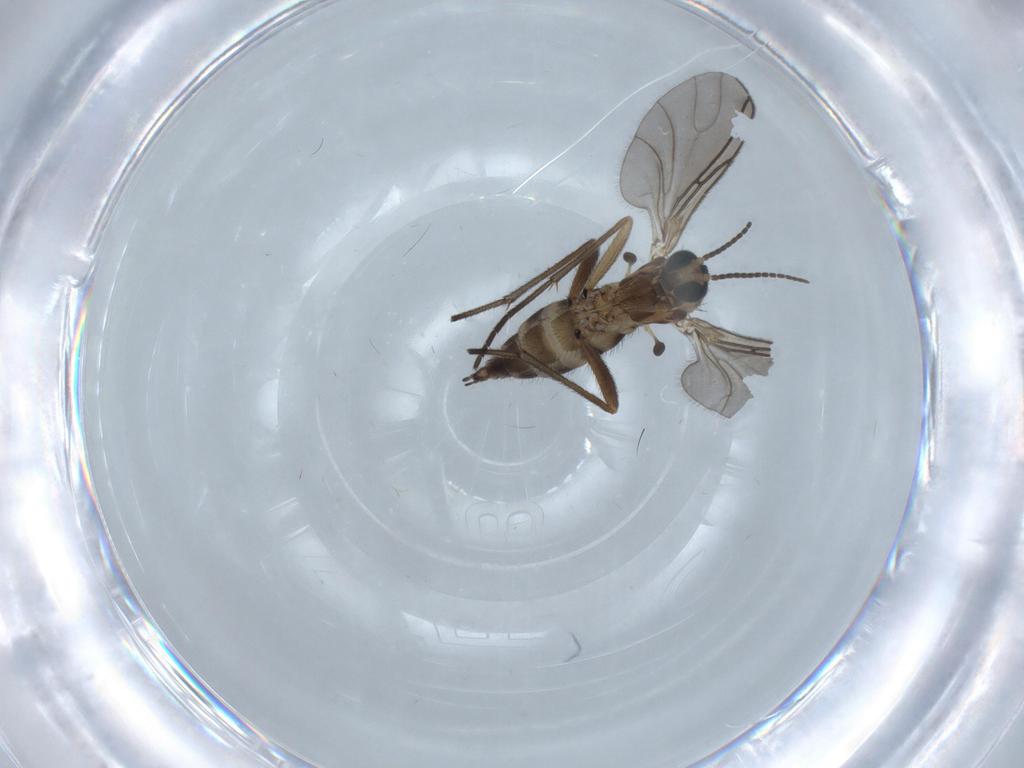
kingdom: Animalia
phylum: Arthropoda
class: Insecta
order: Diptera
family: Sciaridae
